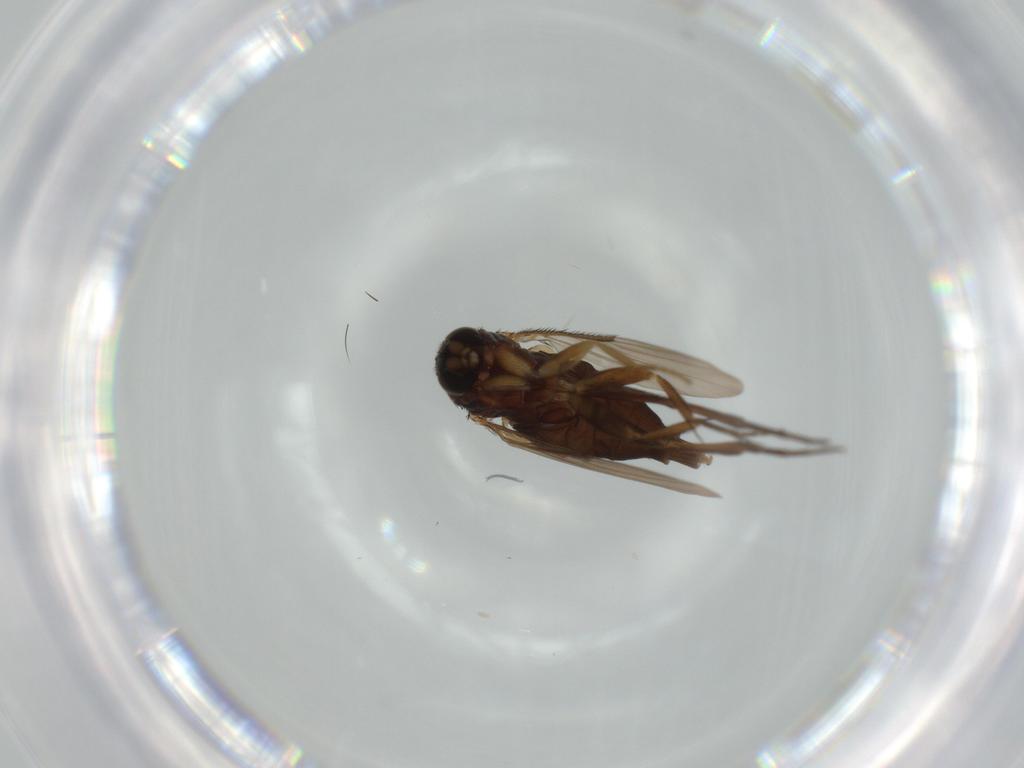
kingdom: Animalia
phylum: Arthropoda
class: Insecta
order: Diptera
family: Phoridae
